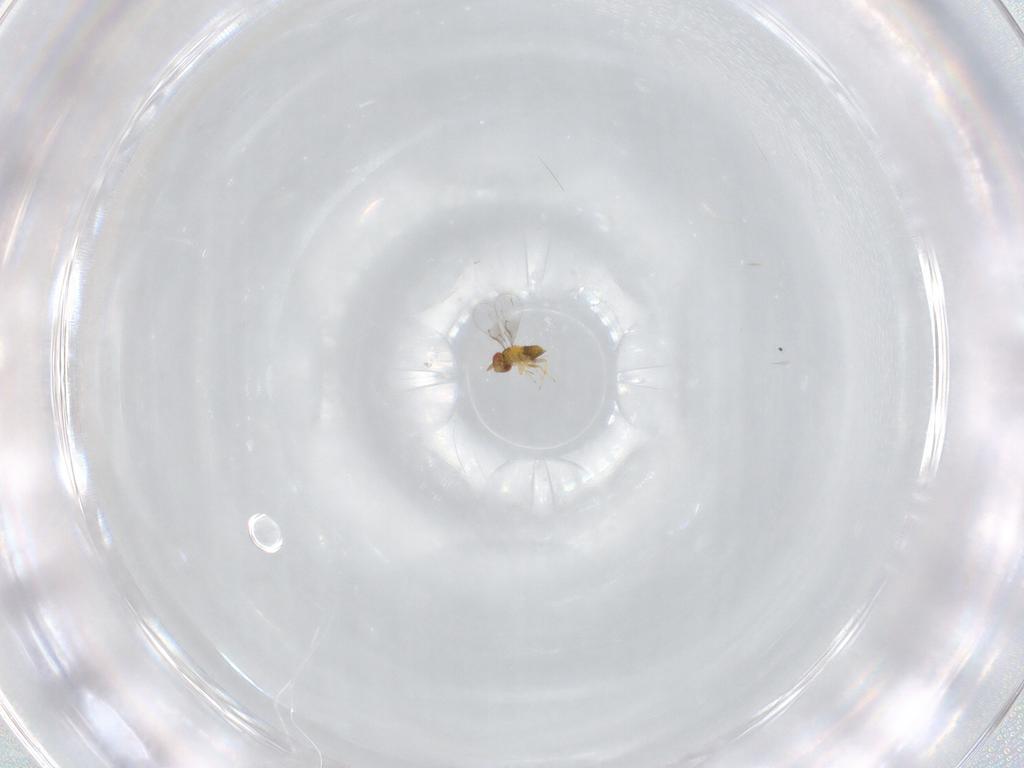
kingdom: Animalia
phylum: Arthropoda
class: Insecta
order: Hymenoptera
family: Trichogrammatidae
